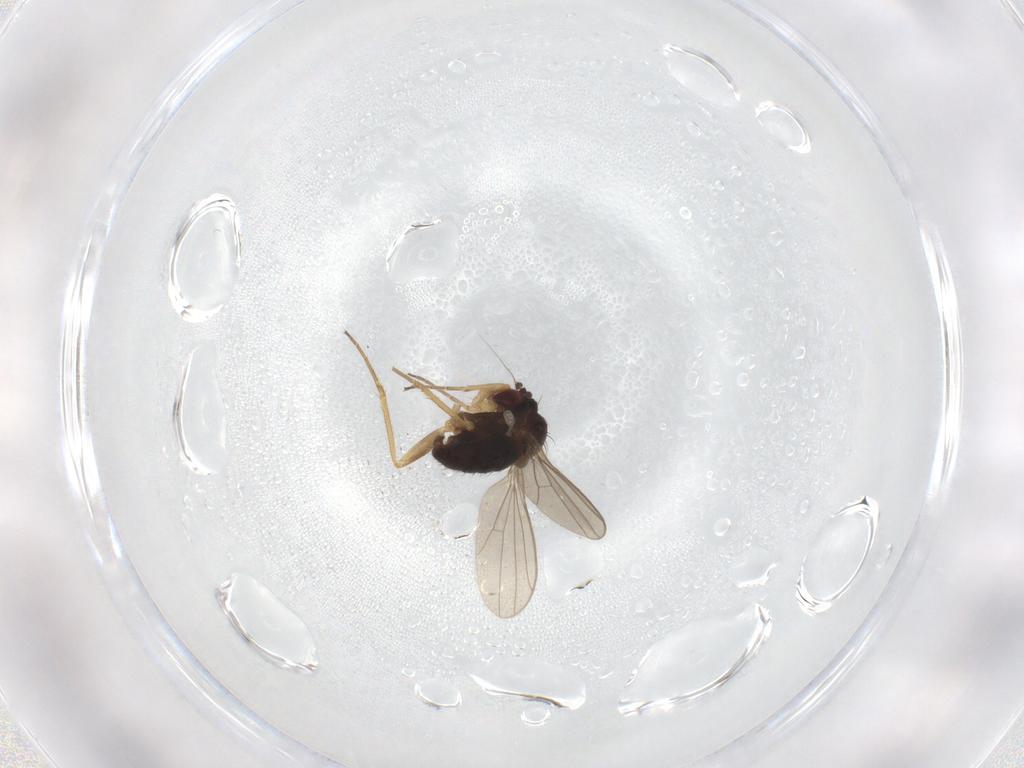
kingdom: Animalia
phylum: Arthropoda
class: Insecta
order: Diptera
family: Dolichopodidae
